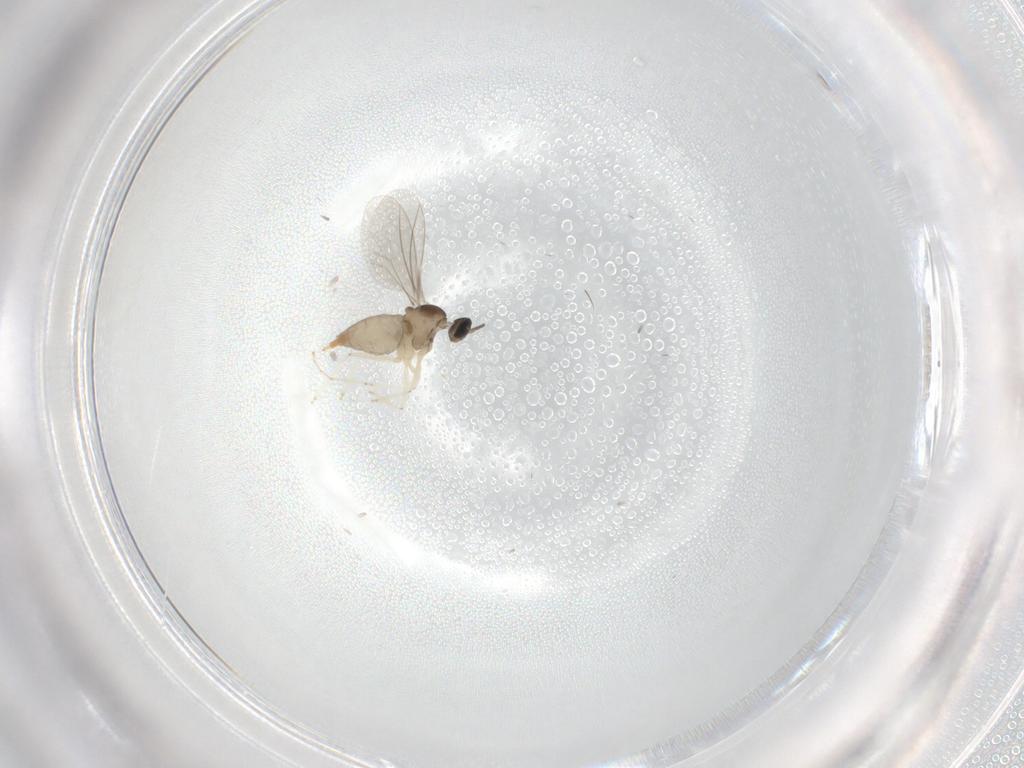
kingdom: Animalia
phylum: Arthropoda
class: Insecta
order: Diptera
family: Psychodidae
